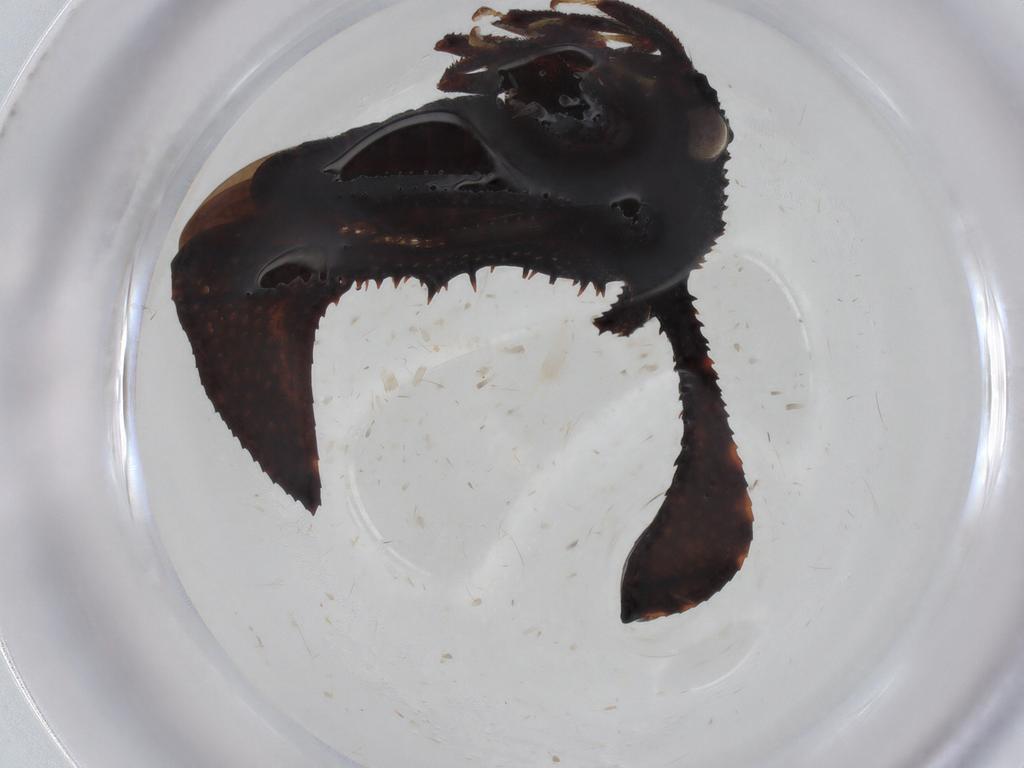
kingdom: Animalia
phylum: Arthropoda
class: Insecta
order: Hemiptera
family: Membracidae
